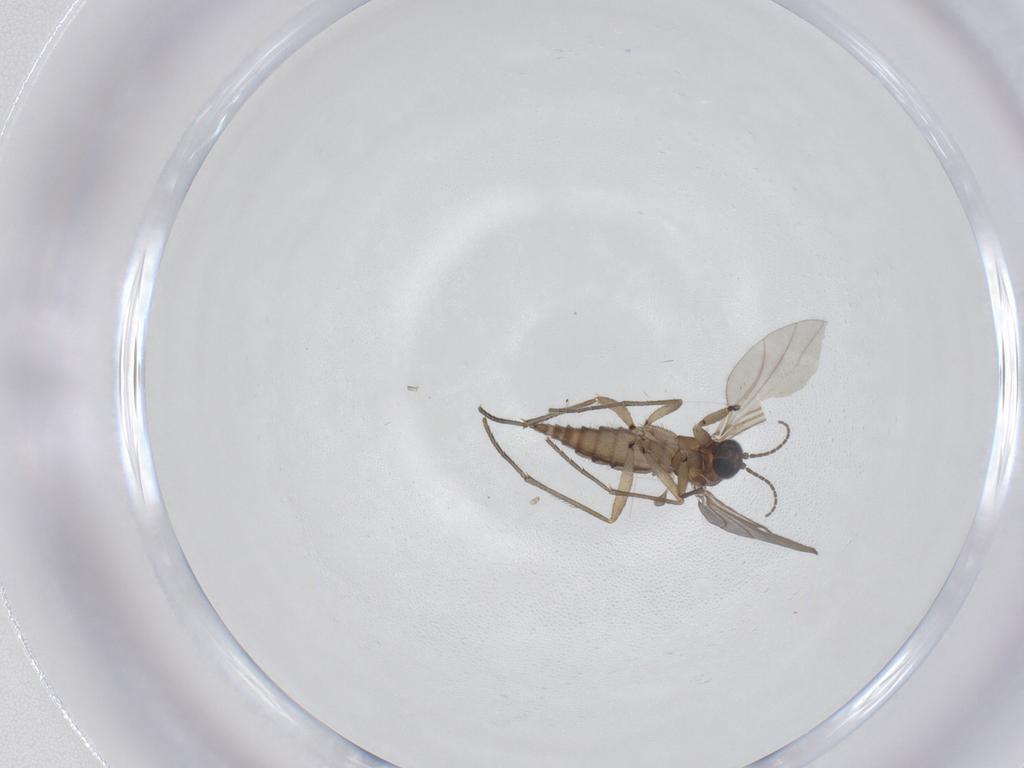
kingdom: Animalia
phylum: Arthropoda
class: Insecta
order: Diptera
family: Sciaridae
